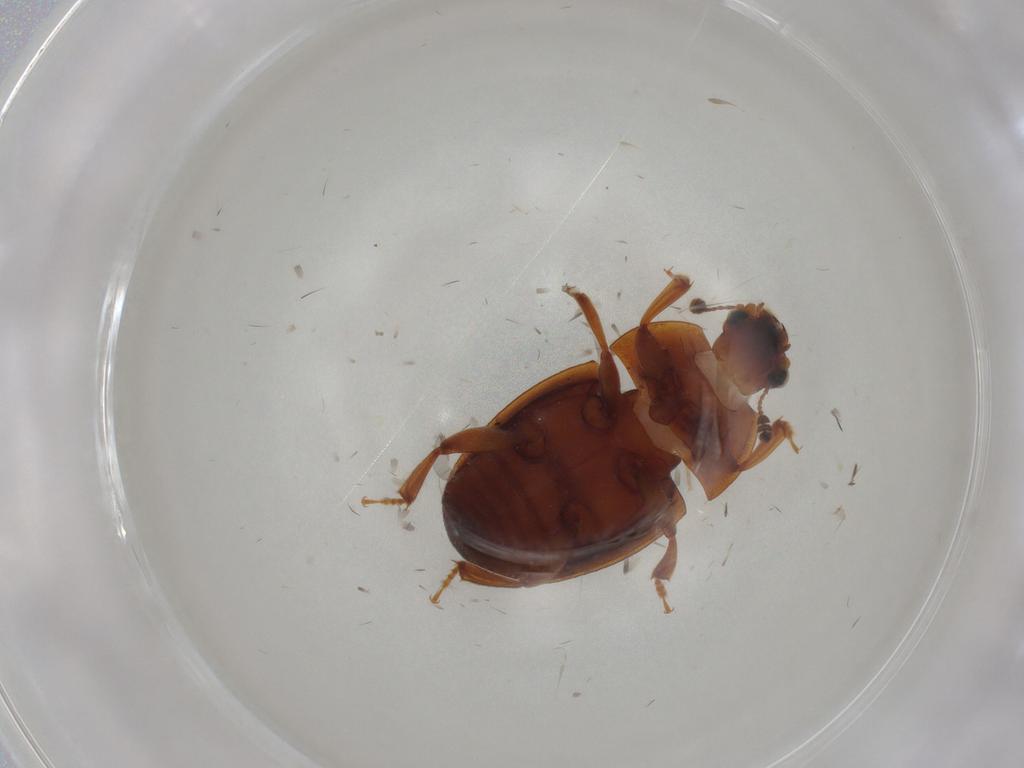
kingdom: Animalia
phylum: Arthropoda
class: Insecta
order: Coleoptera
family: Nitidulidae
